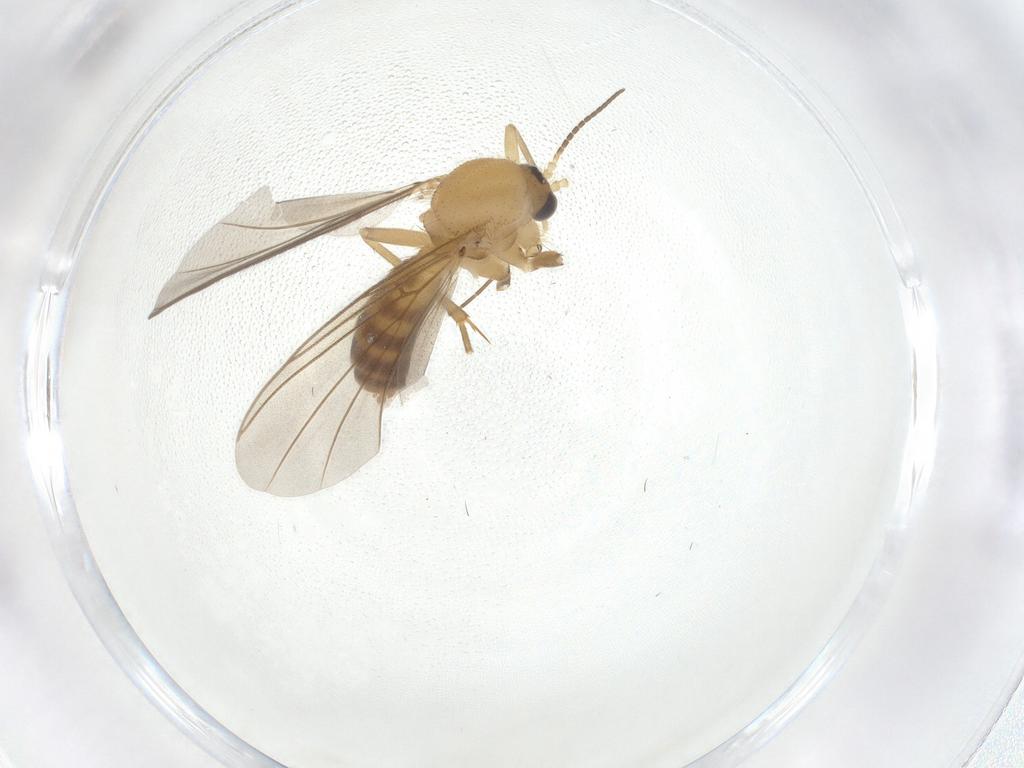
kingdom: Animalia
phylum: Arthropoda
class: Insecta
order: Diptera
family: Mycetophilidae
